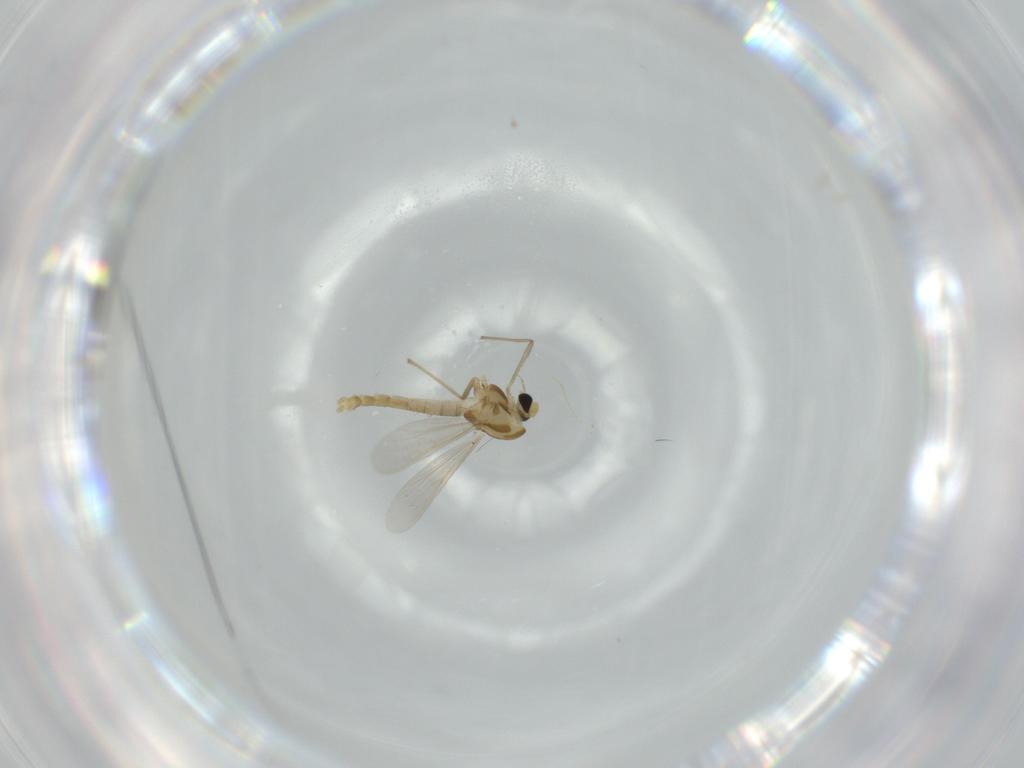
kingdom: Animalia
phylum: Arthropoda
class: Insecta
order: Diptera
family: Chironomidae
